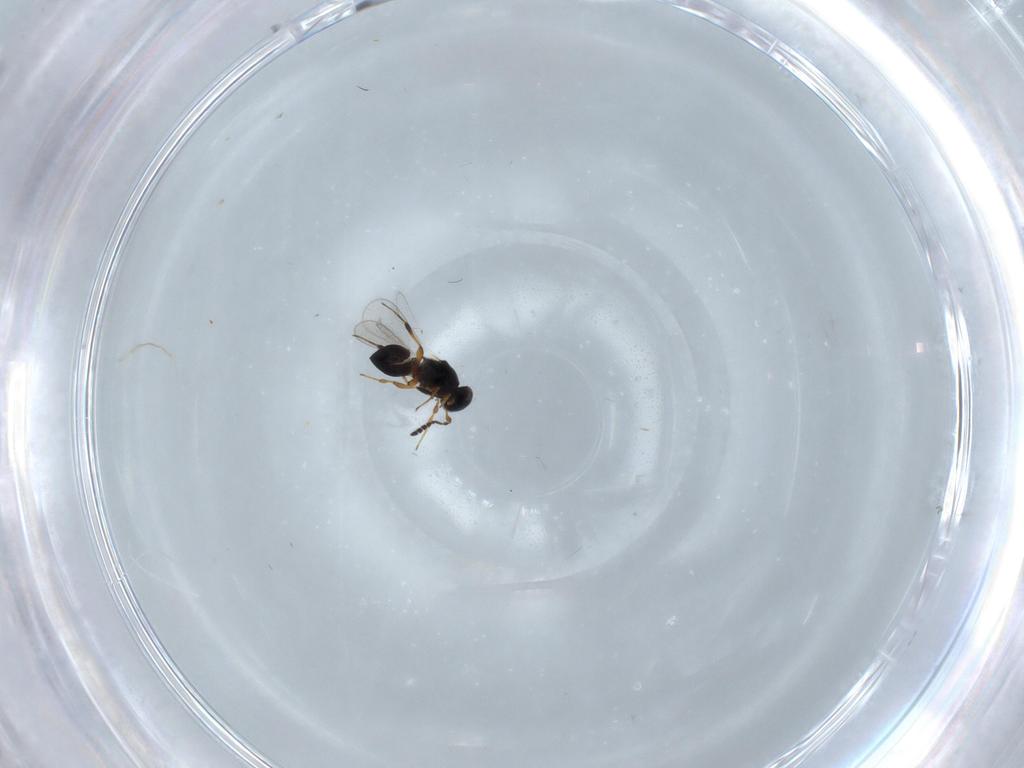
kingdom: Animalia
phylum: Arthropoda
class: Insecta
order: Hymenoptera
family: Platygastridae
